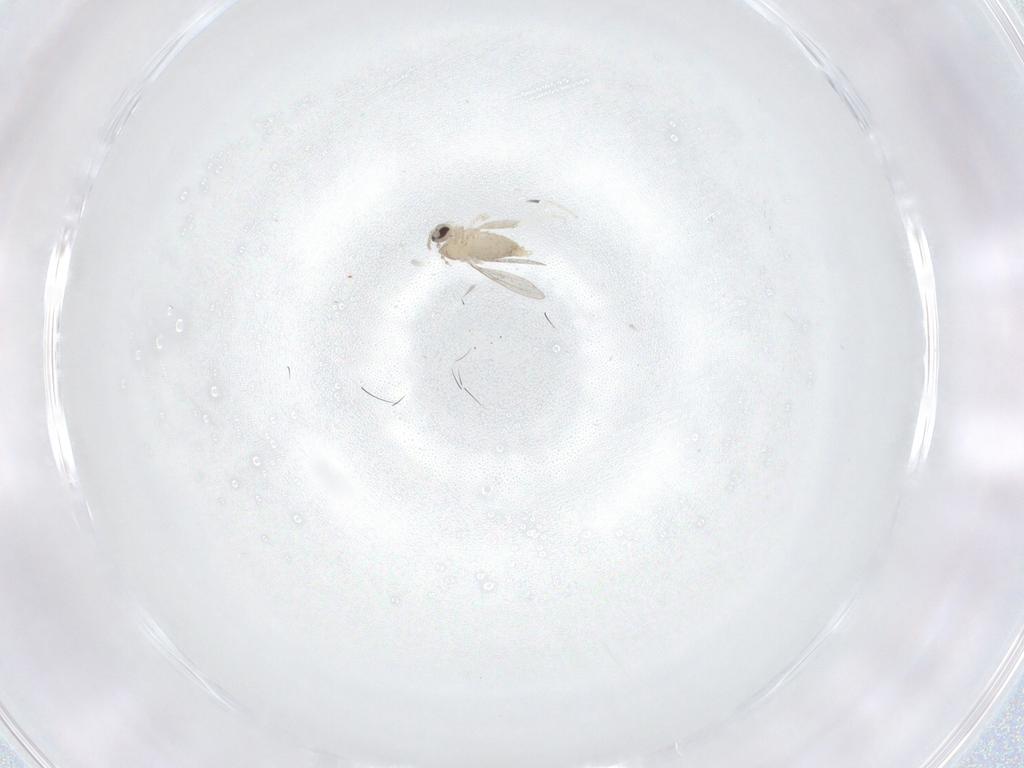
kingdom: Animalia
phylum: Arthropoda
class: Insecta
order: Diptera
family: Cecidomyiidae
